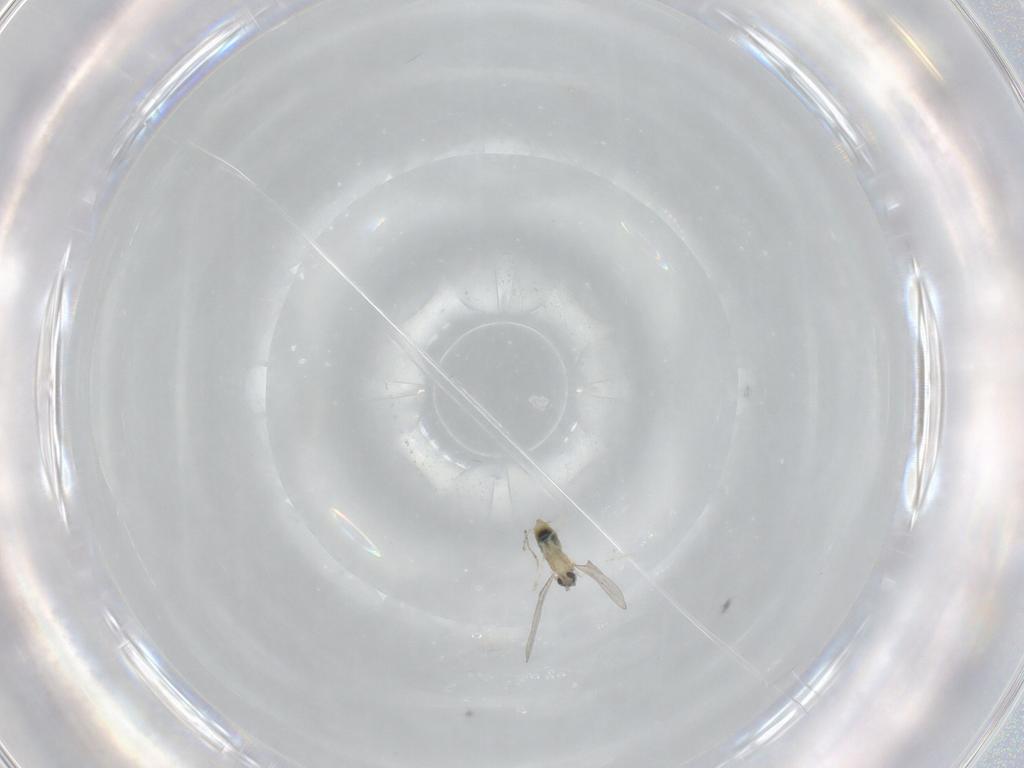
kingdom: Animalia
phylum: Arthropoda
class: Insecta
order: Diptera
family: Cecidomyiidae
